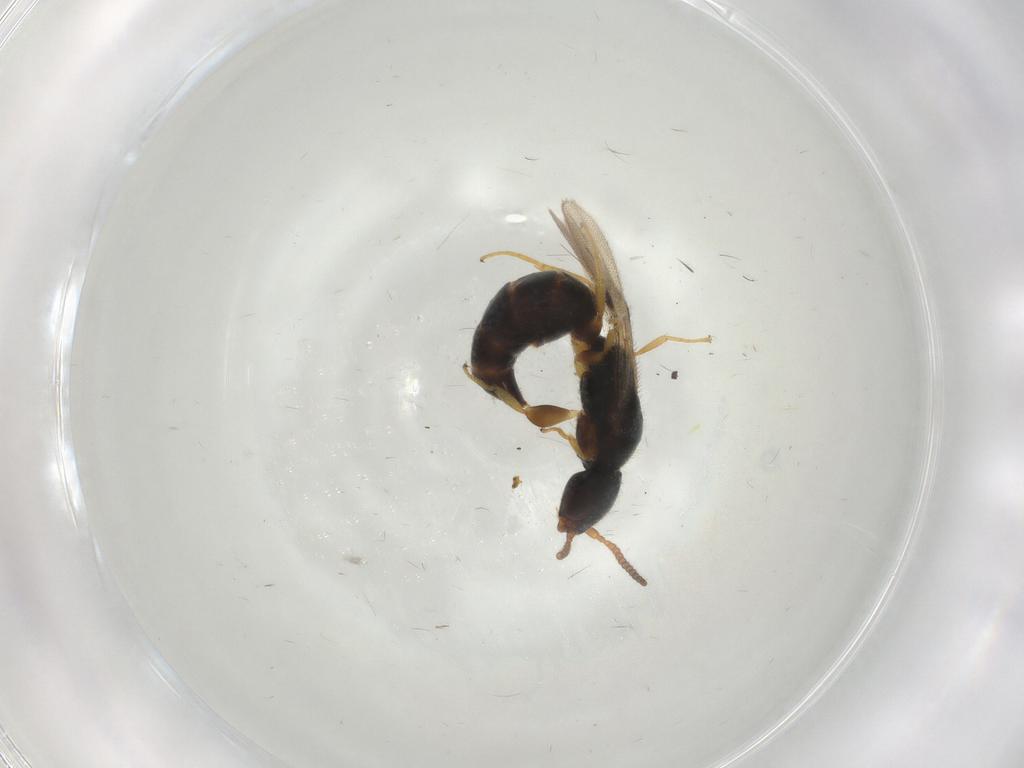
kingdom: Animalia
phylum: Arthropoda
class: Insecta
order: Hymenoptera
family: Bethylidae
